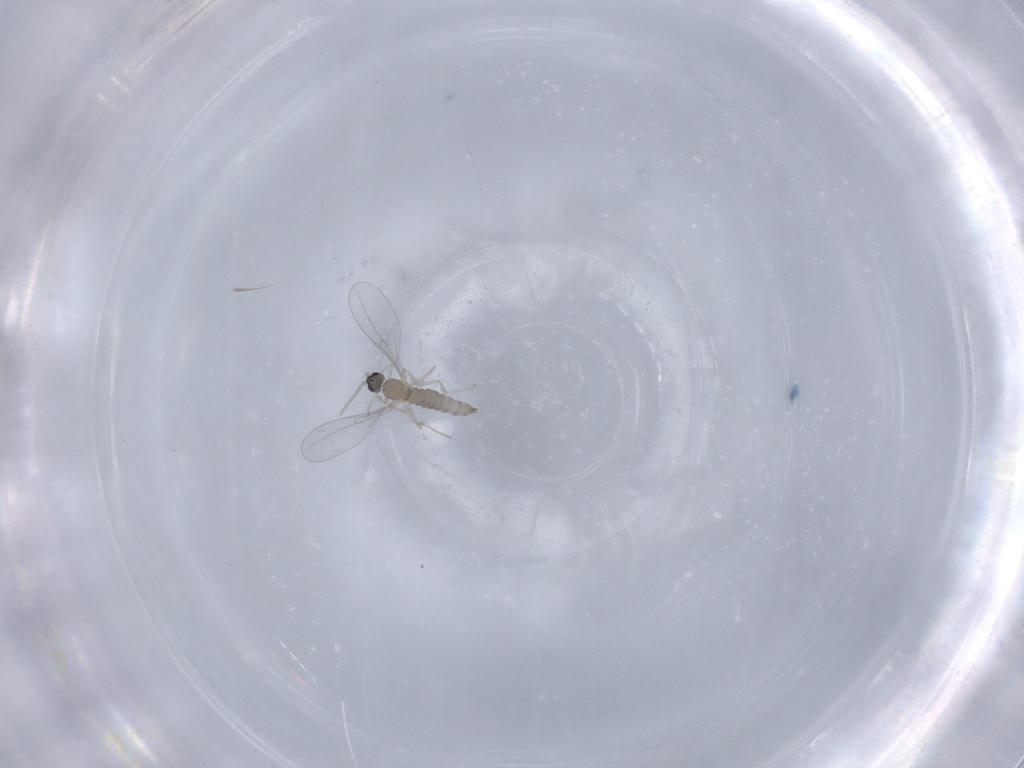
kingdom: Animalia
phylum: Arthropoda
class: Insecta
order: Diptera
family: Cecidomyiidae
